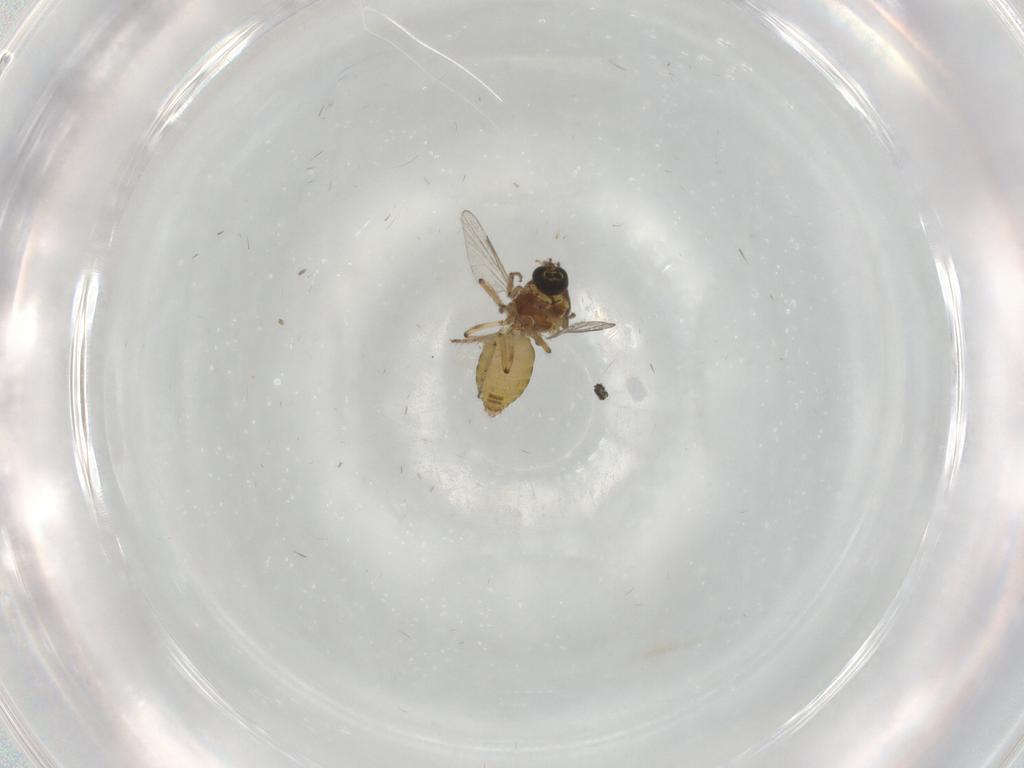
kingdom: Animalia
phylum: Arthropoda
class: Insecta
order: Diptera
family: Ceratopogonidae
